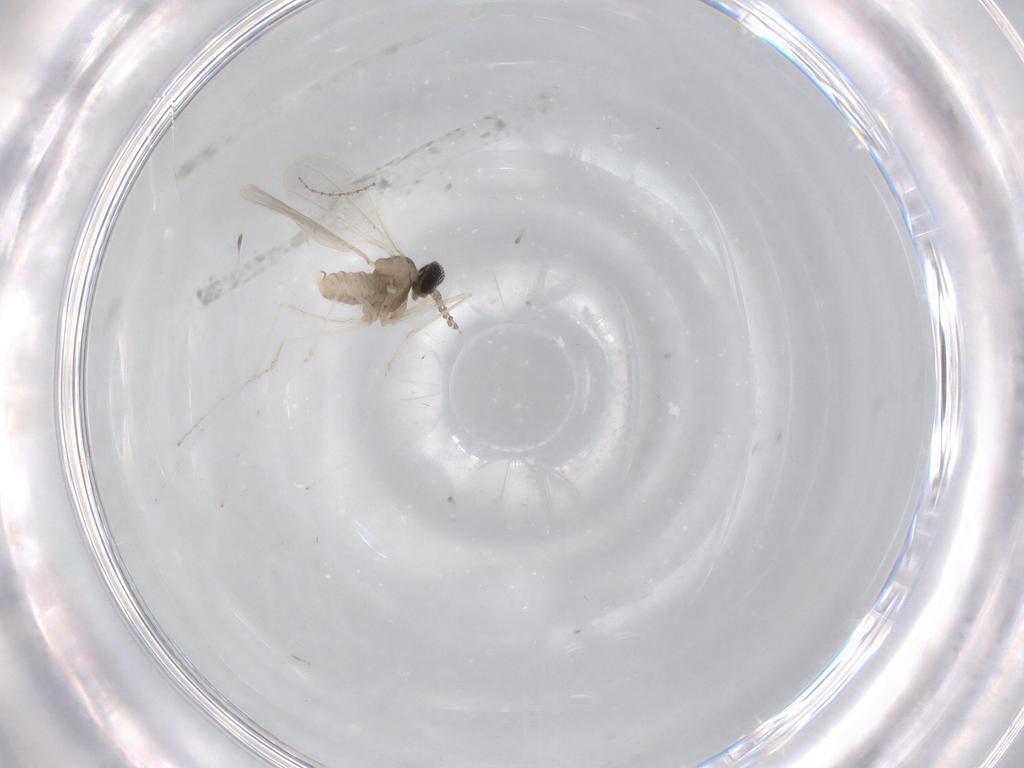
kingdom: Animalia
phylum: Arthropoda
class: Insecta
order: Diptera
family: Cecidomyiidae
